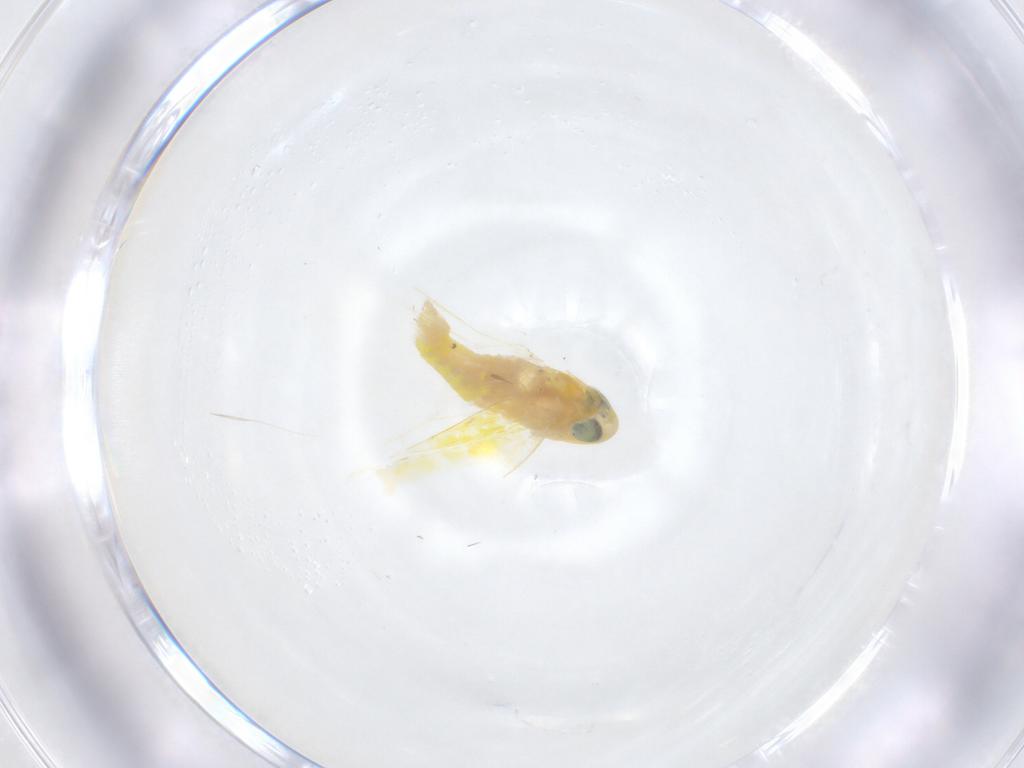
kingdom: Animalia
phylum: Arthropoda
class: Insecta
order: Hemiptera
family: Cicadellidae
